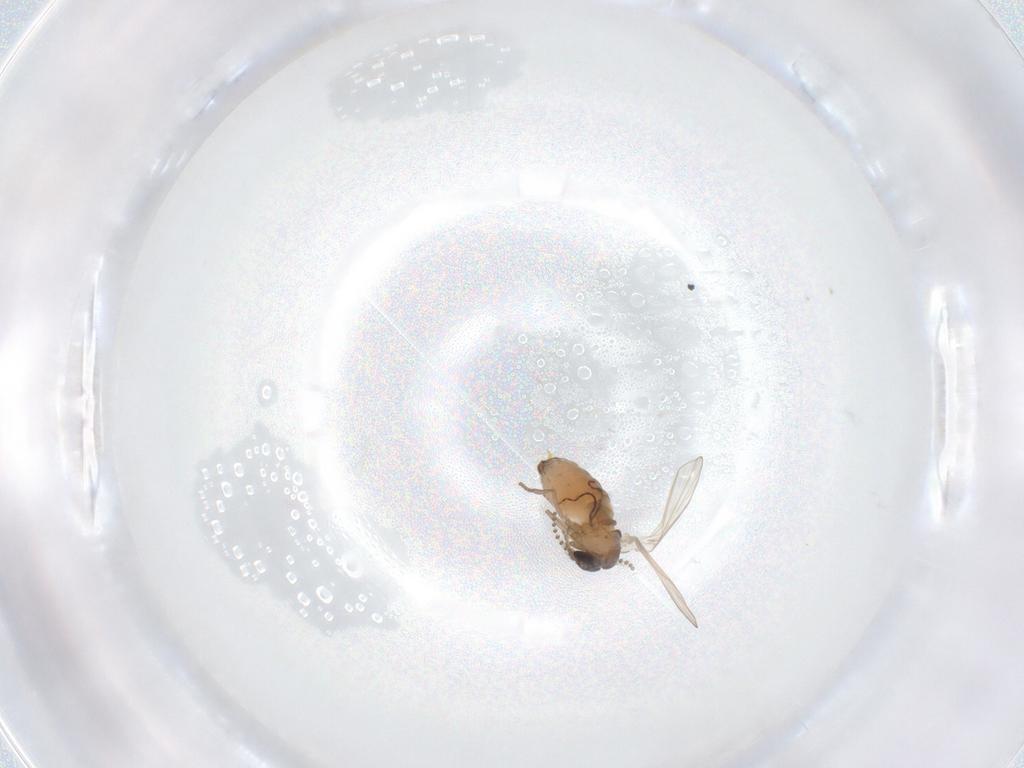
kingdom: Animalia
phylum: Arthropoda
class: Insecta
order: Diptera
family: Psychodidae
